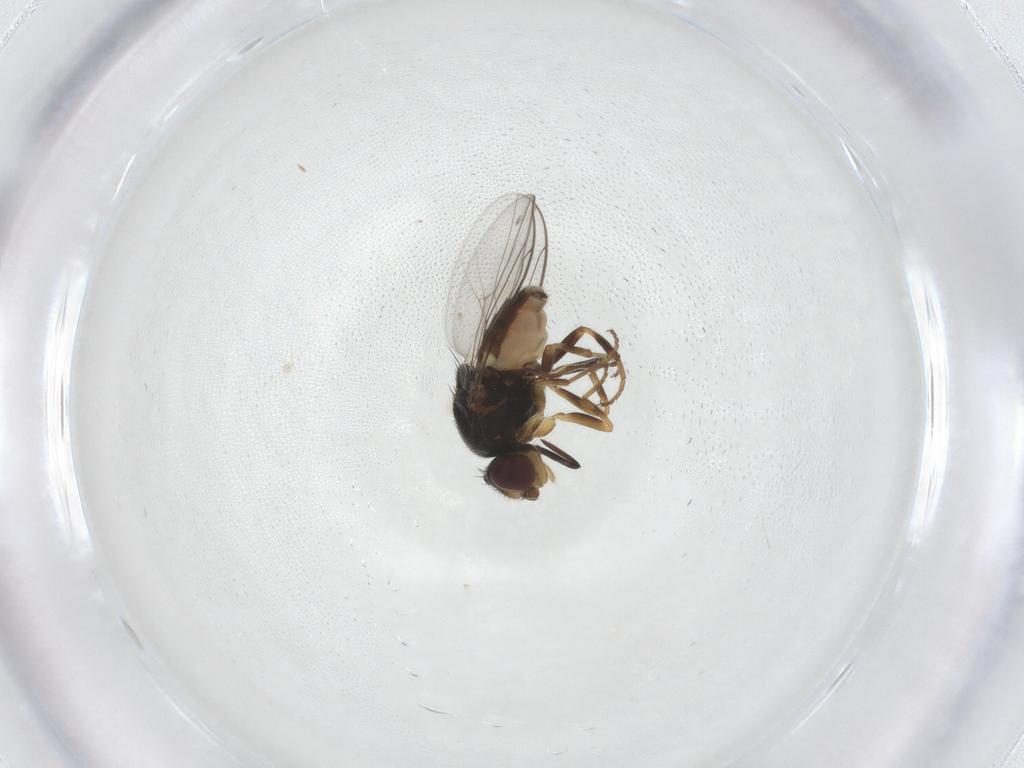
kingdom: Animalia
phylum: Arthropoda
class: Insecta
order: Diptera
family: Chloropidae
